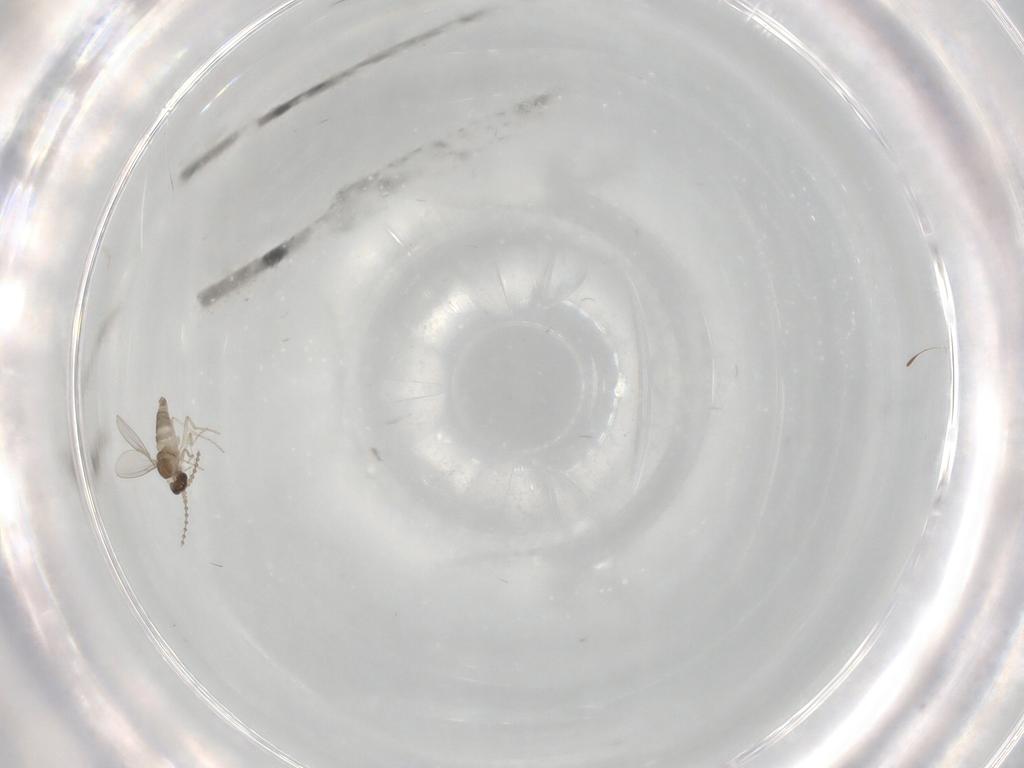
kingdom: Animalia
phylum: Arthropoda
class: Insecta
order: Diptera
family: Cecidomyiidae
